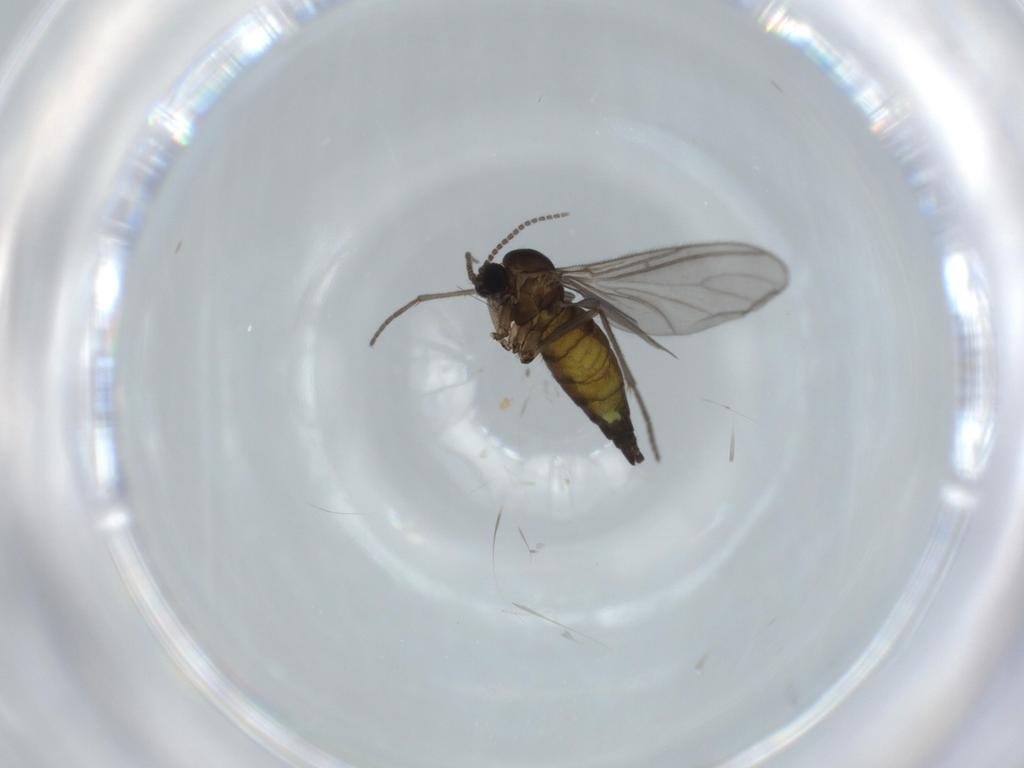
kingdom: Animalia
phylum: Arthropoda
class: Insecta
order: Diptera
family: Sciaridae
